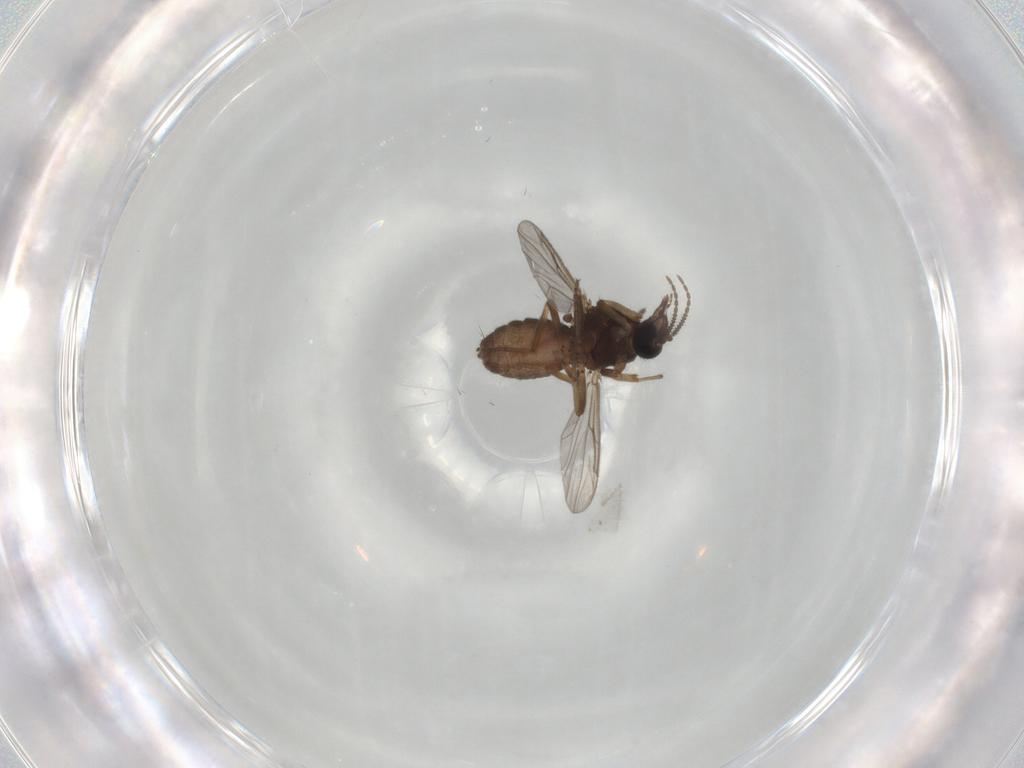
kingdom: Animalia
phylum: Arthropoda
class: Insecta
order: Diptera
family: Ceratopogonidae
